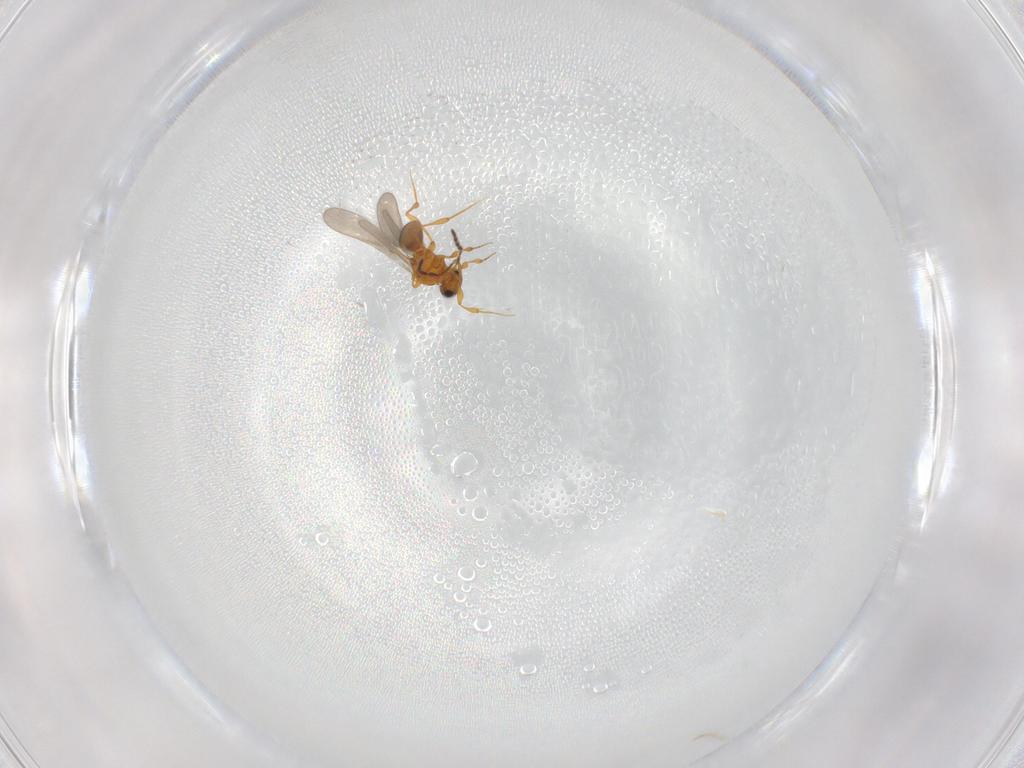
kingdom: Animalia
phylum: Arthropoda
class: Insecta
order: Hymenoptera
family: Platygastridae
